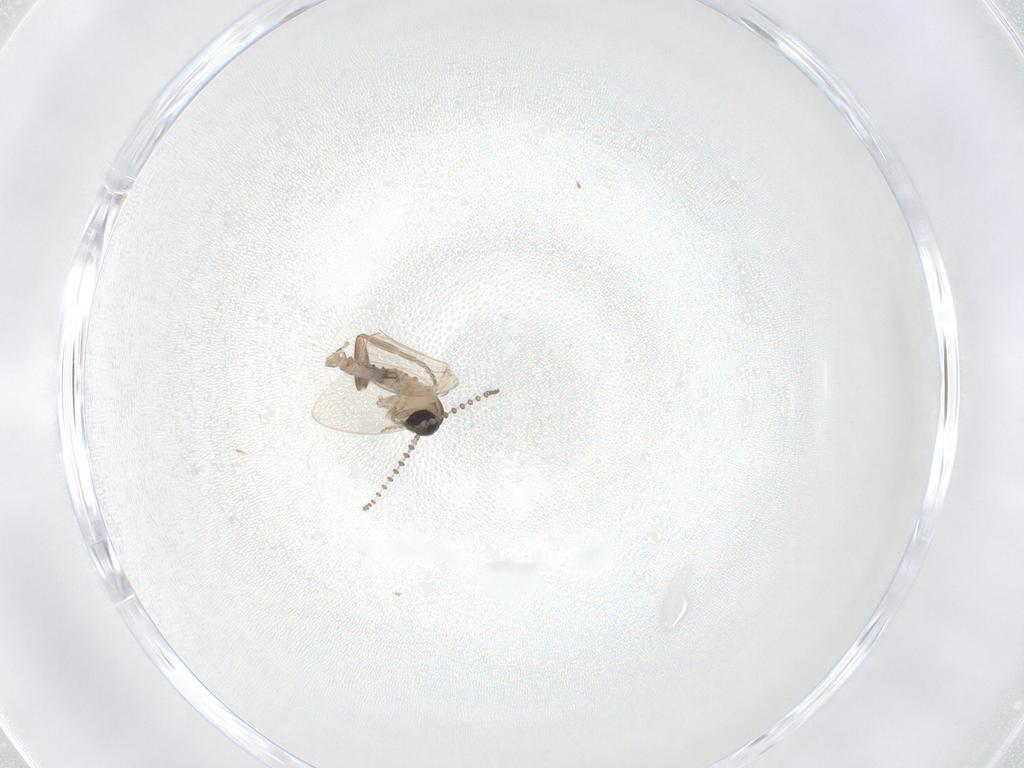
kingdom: Animalia
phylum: Arthropoda
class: Insecta
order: Diptera
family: Psychodidae
